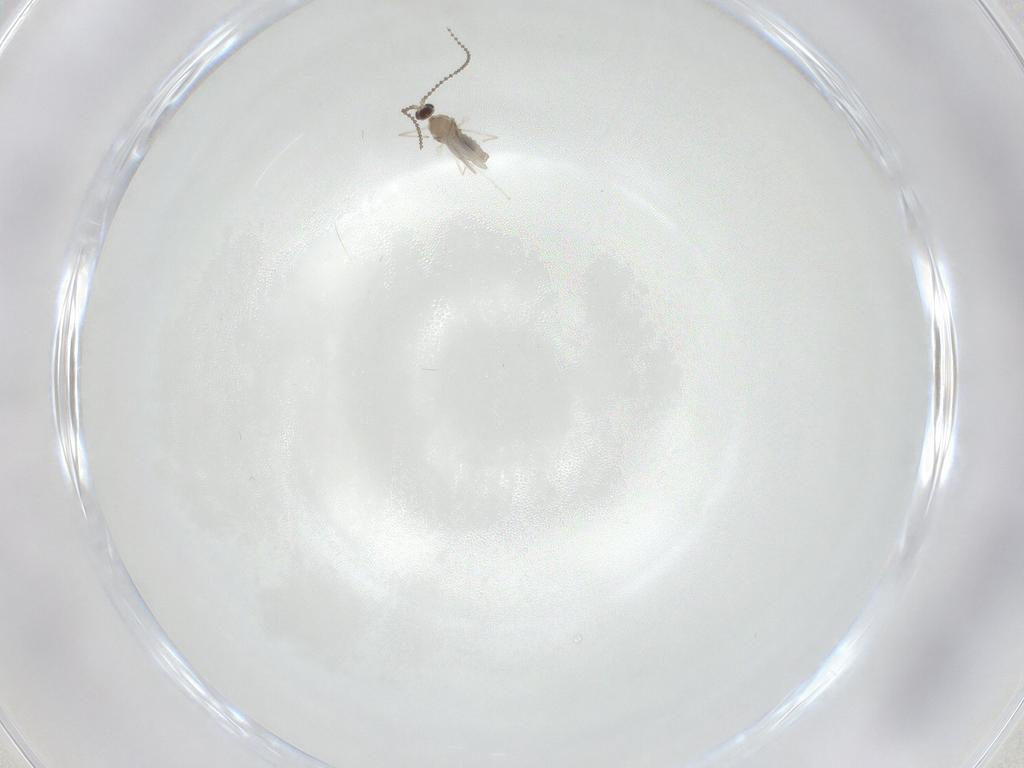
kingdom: Animalia
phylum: Arthropoda
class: Insecta
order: Diptera
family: Cecidomyiidae
